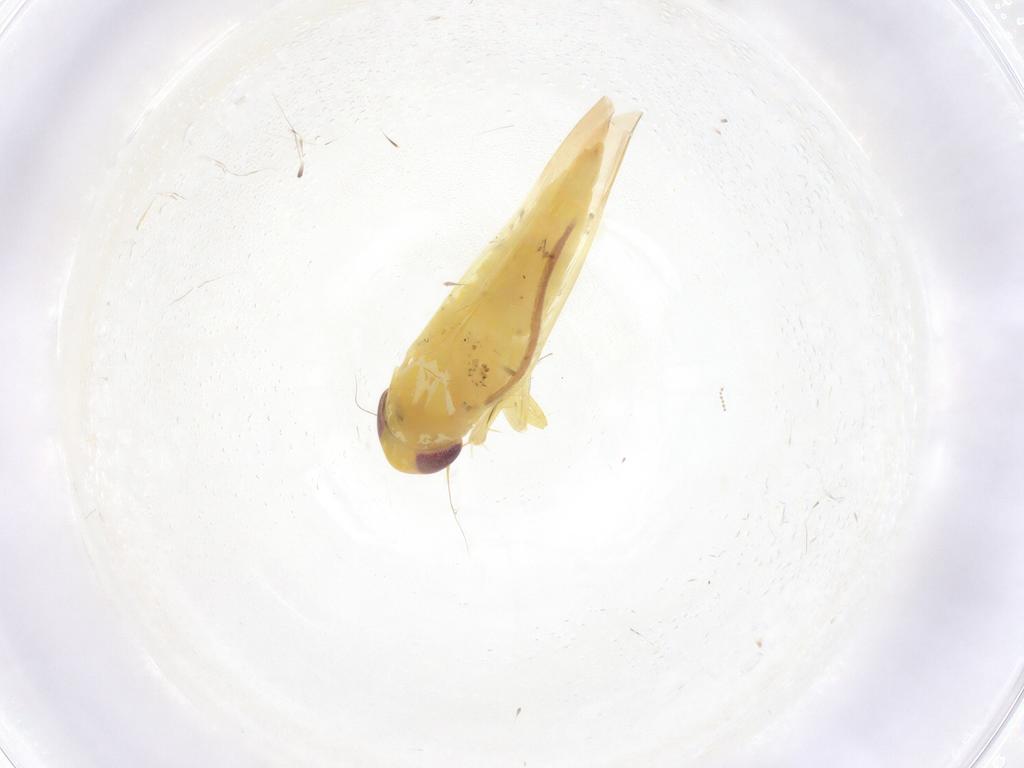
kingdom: Animalia
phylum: Arthropoda
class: Insecta
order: Hemiptera
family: Cicadellidae
